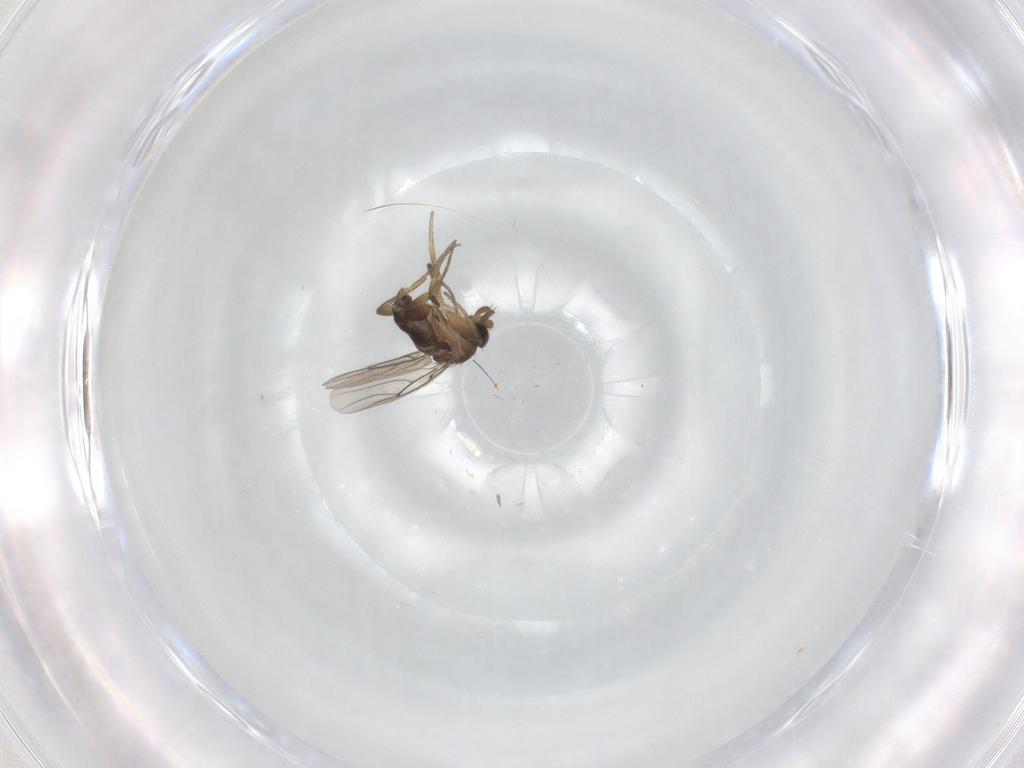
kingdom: Animalia
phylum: Arthropoda
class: Insecta
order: Diptera
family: Phoridae
